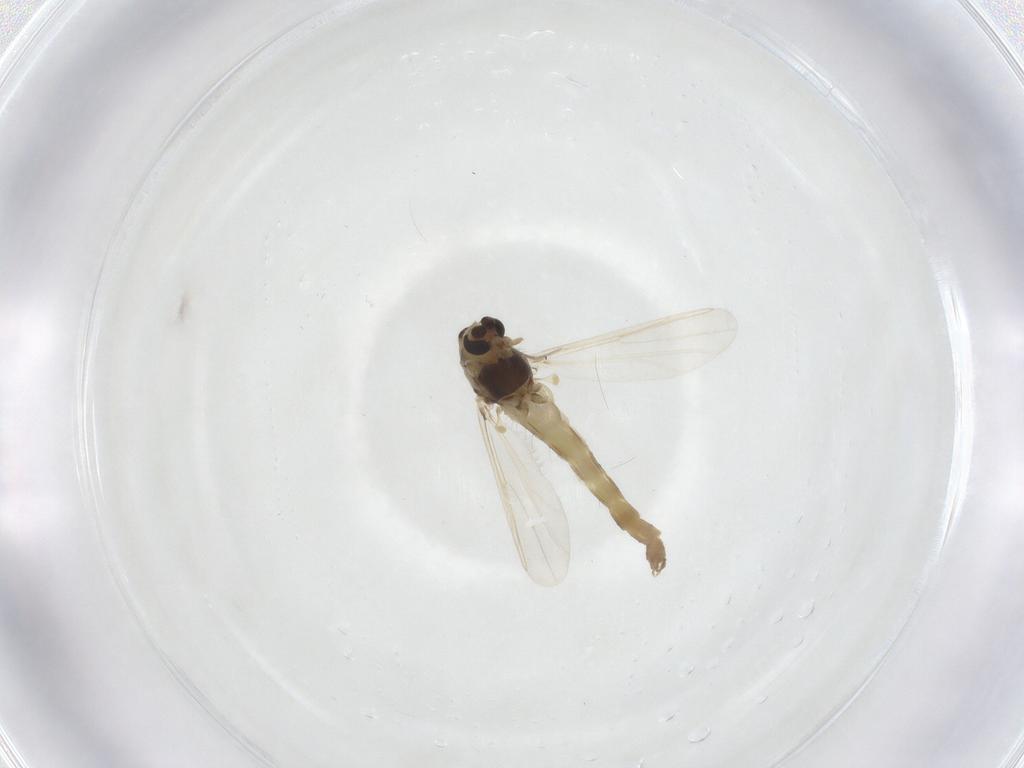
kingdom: Animalia
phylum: Arthropoda
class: Insecta
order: Diptera
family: Chironomidae
